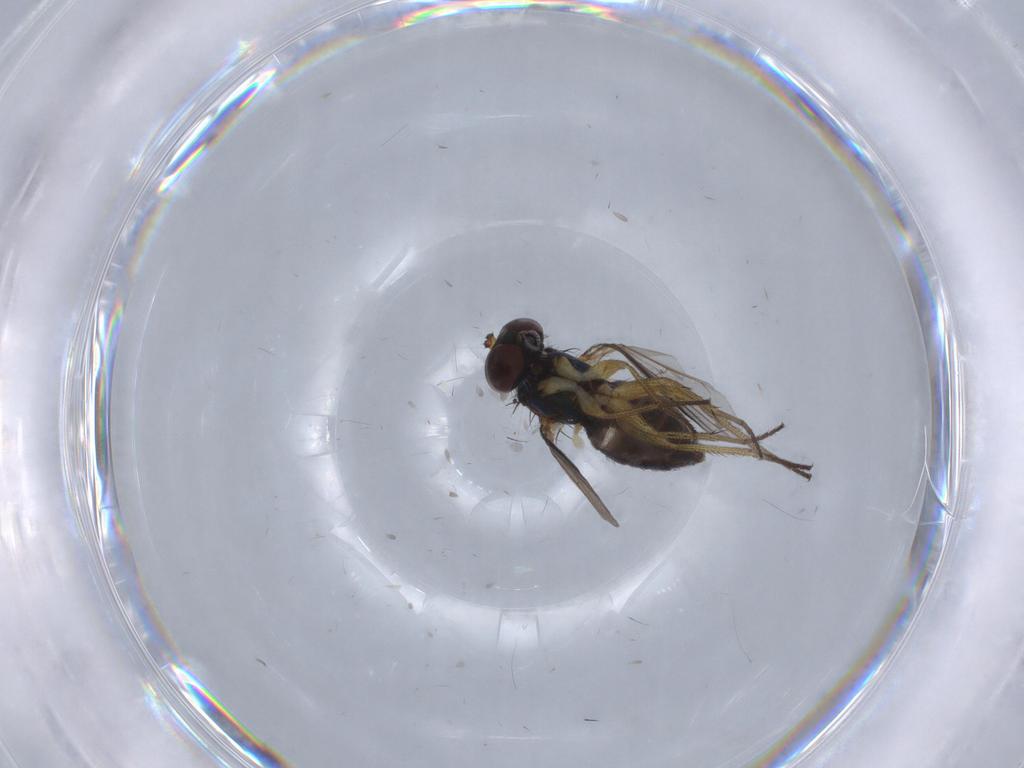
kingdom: Animalia
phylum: Arthropoda
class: Insecta
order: Diptera
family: Dolichopodidae
